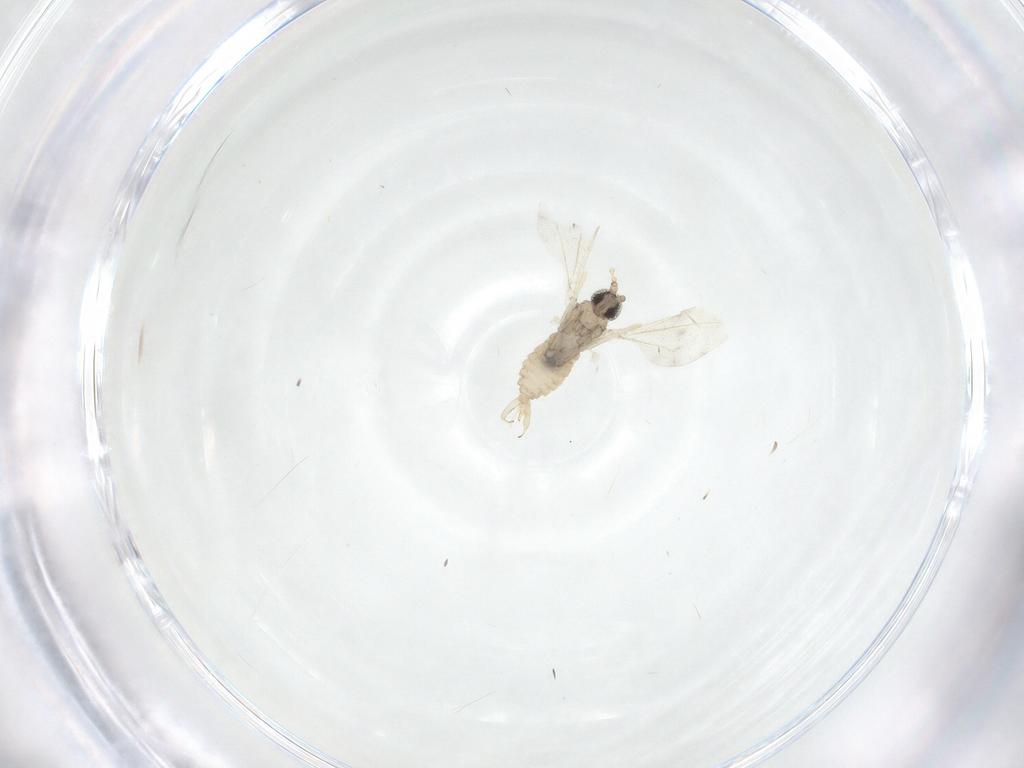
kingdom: Animalia
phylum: Arthropoda
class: Insecta
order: Diptera
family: Cecidomyiidae
